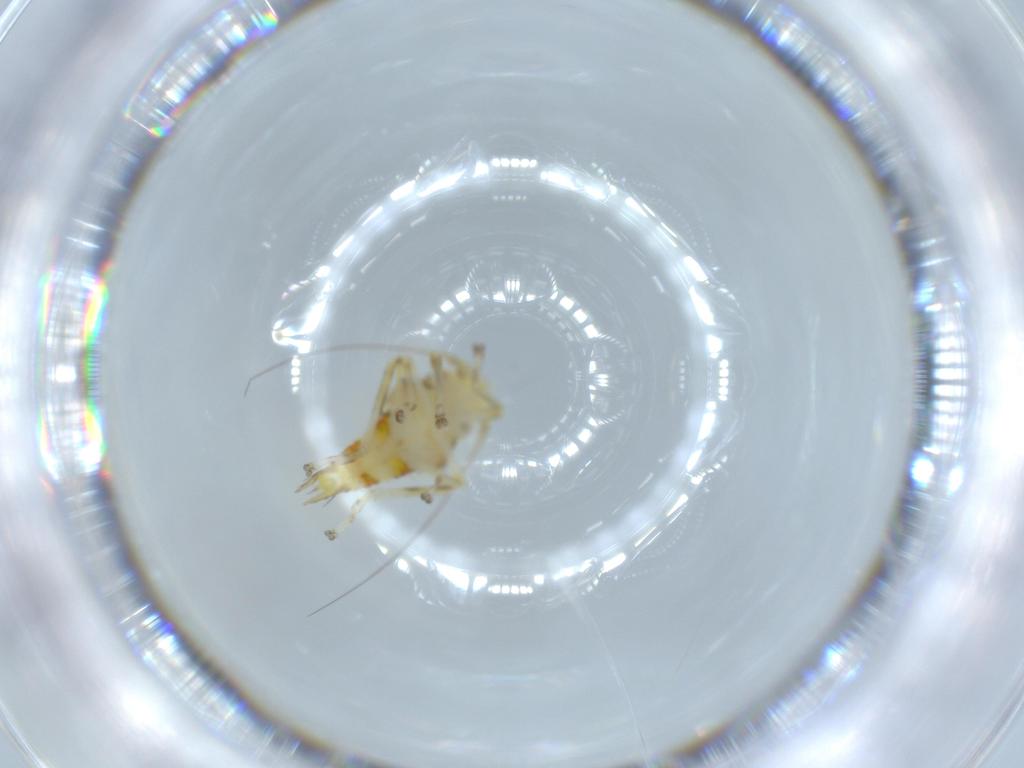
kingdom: Animalia
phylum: Arthropoda
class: Insecta
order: Hemiptera
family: Cicadellidae
